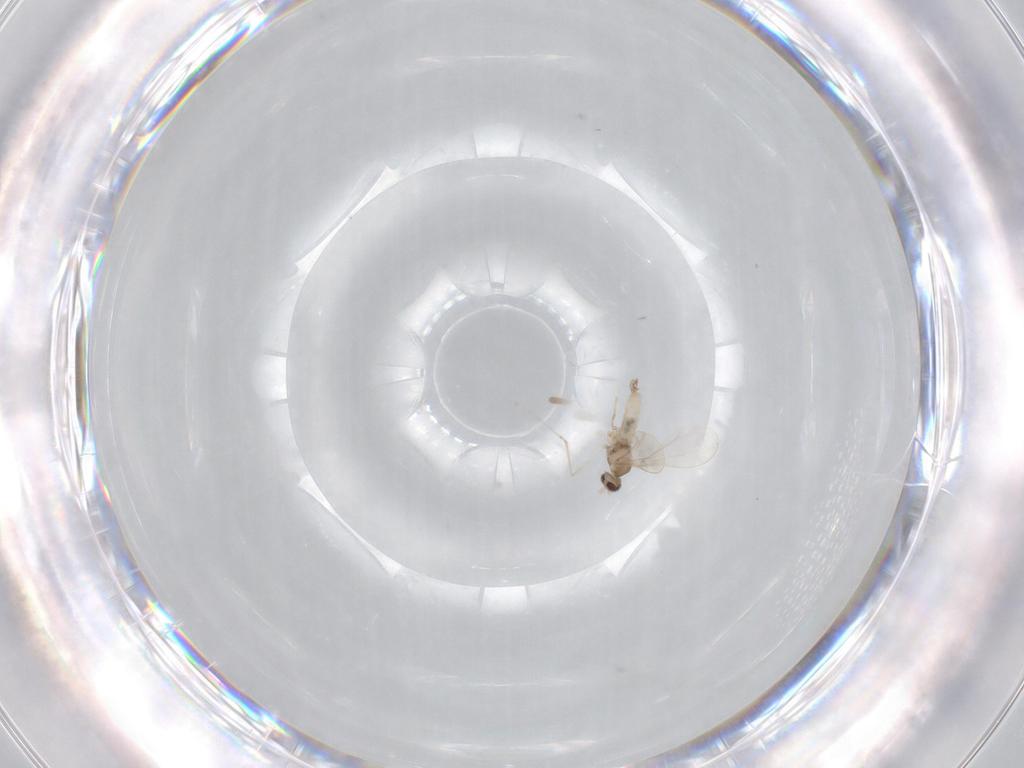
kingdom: Animalia
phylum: Arthropoda
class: Insecta
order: Diptera
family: Cecidomyiidae
